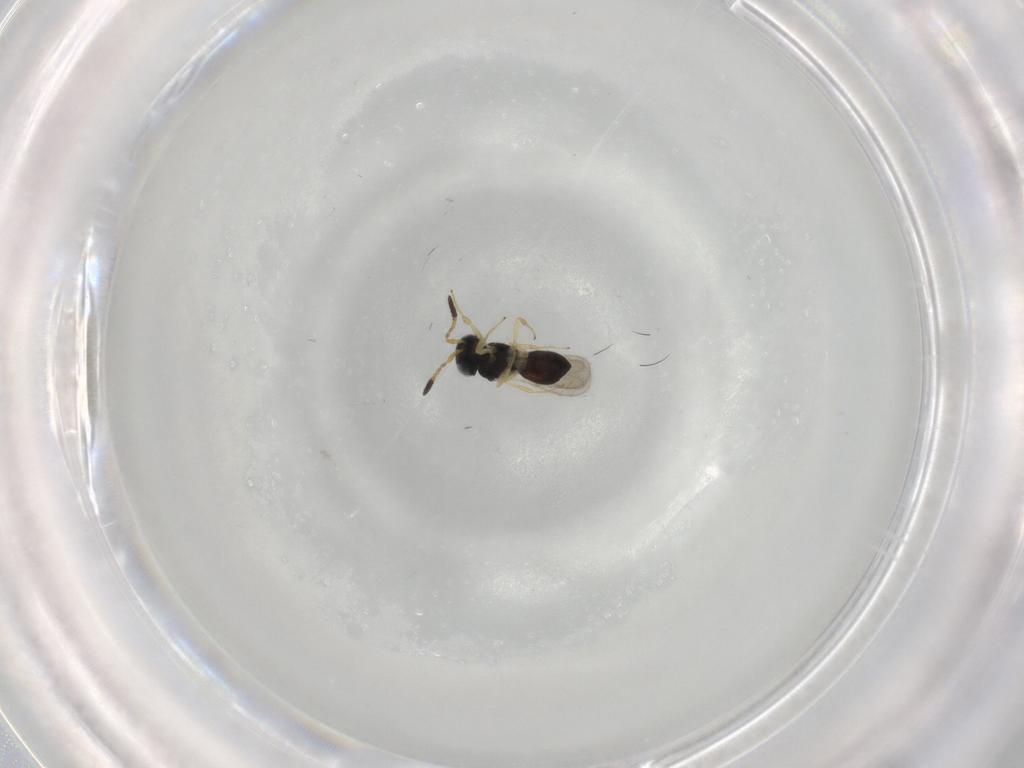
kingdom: Animalia
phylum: Arthropoda
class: Insecta
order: Hymenoptera
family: Scelionidae
